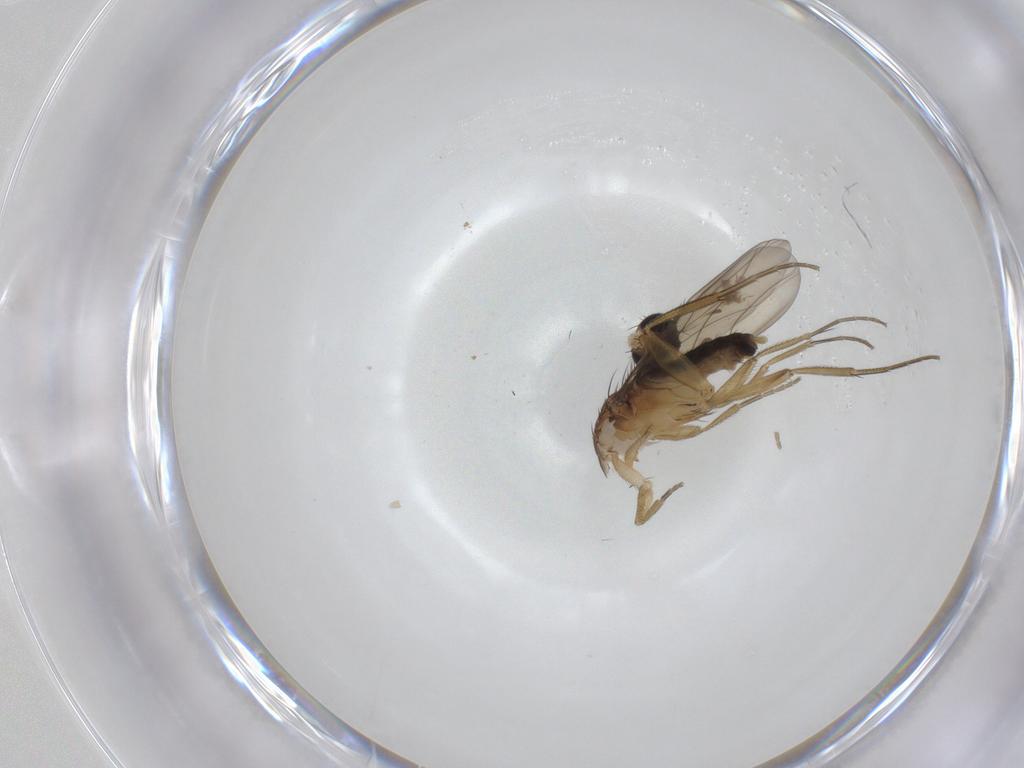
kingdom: Animalia
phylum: Arthropoda
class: Insecta
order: Diptera
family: Phoridae
